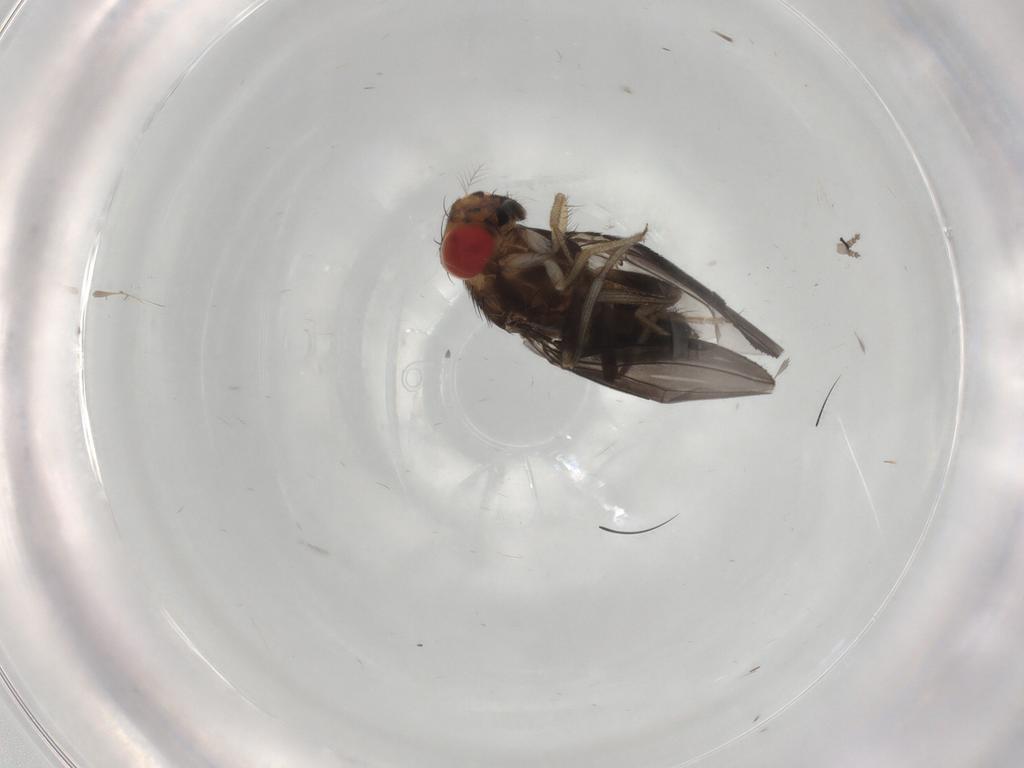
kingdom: Animalia
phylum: Arthropoda
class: Insecta
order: Diptera
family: Drosophilidae
